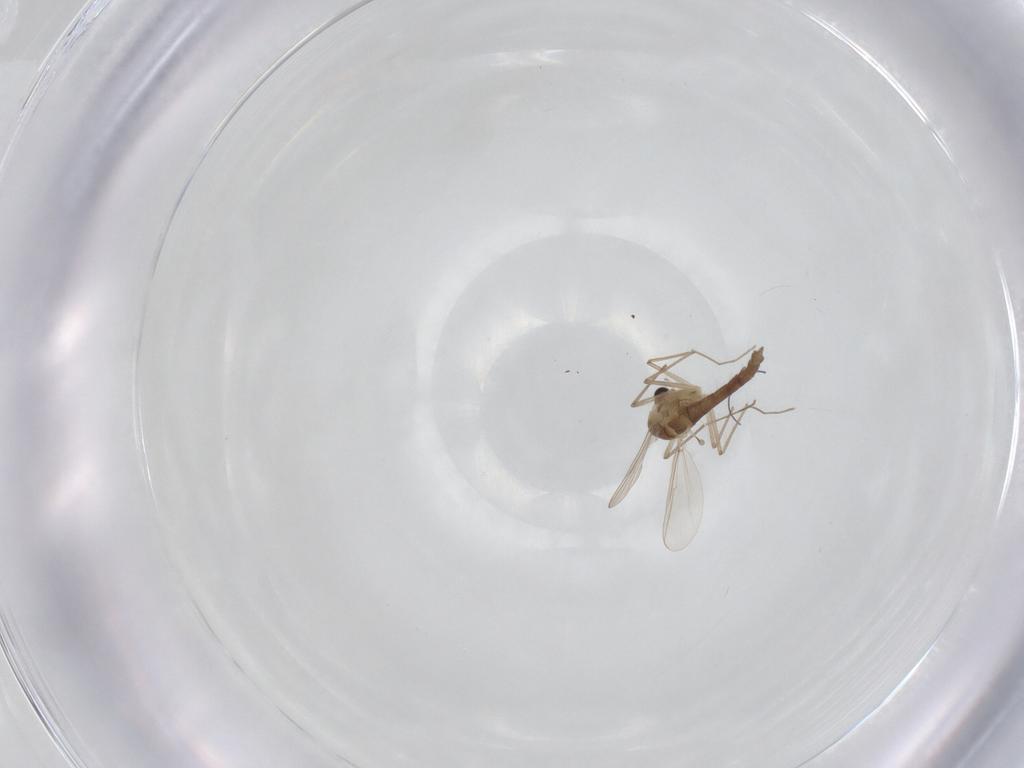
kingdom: Animalia
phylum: Arthropoda
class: Insecta
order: Diptera
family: Chironomidae
